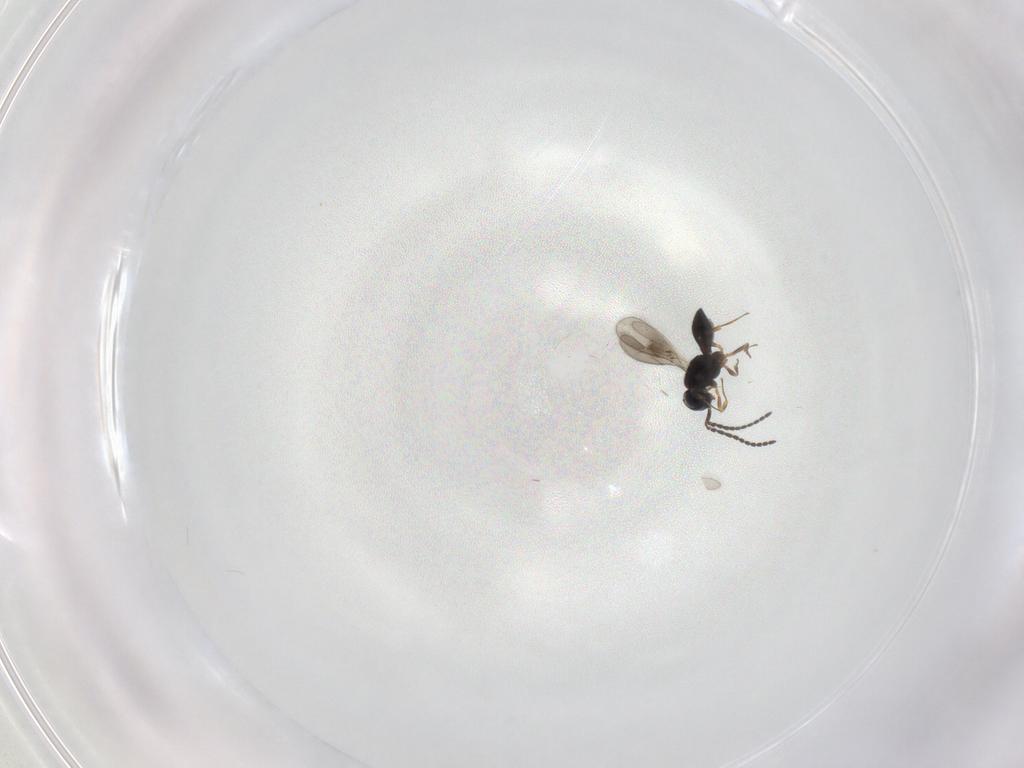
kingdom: Animalia
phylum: Arthropoda
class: Insecta
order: Hymenoptera
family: Scelionidae
